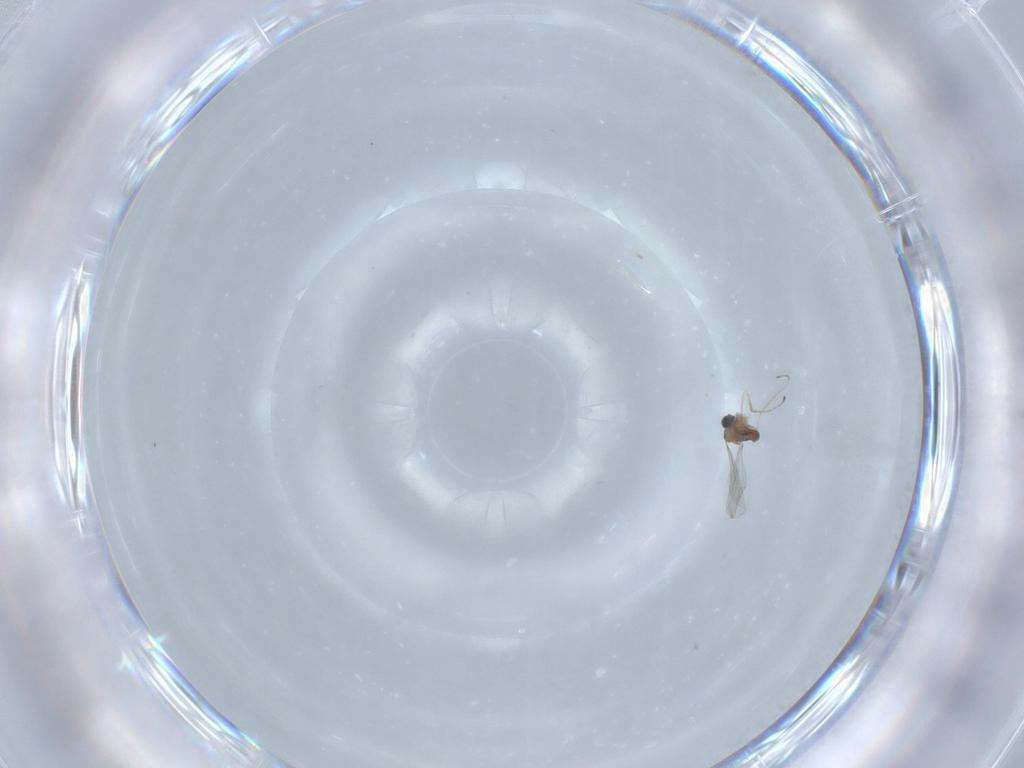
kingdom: Animalia
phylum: Arthropoda
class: Insecta
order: Diptera
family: Cecidomyiidae
